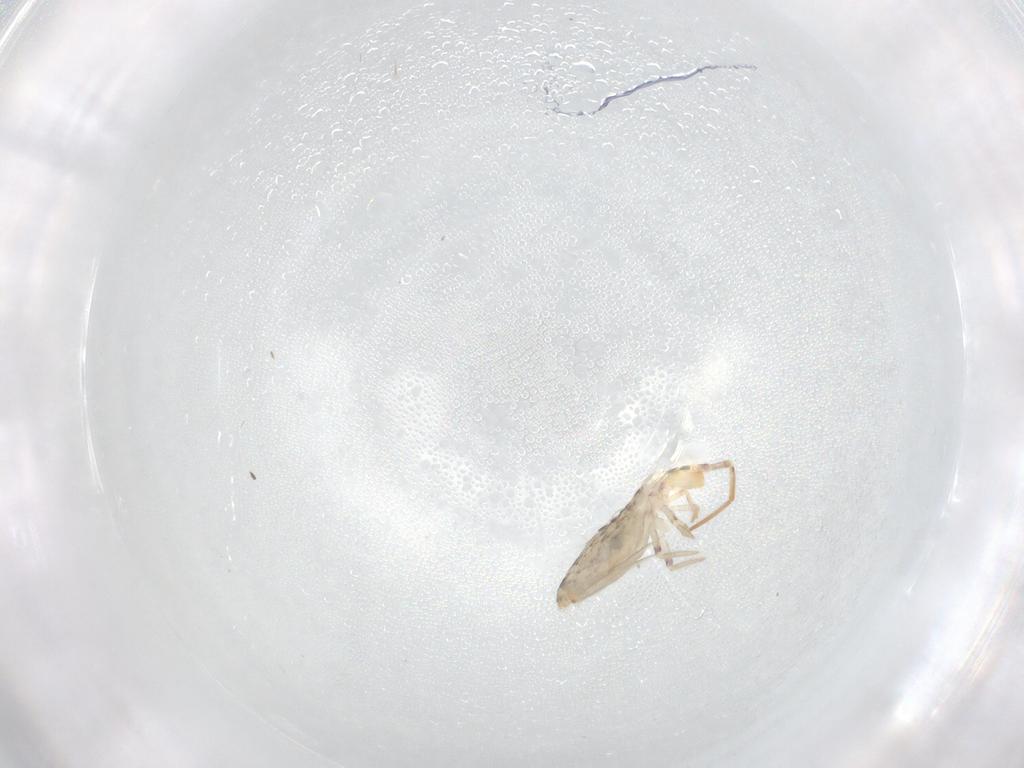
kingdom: Animalia
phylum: Arthropoda
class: Collembola
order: Entomobryomorpha
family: Entomobryidae
